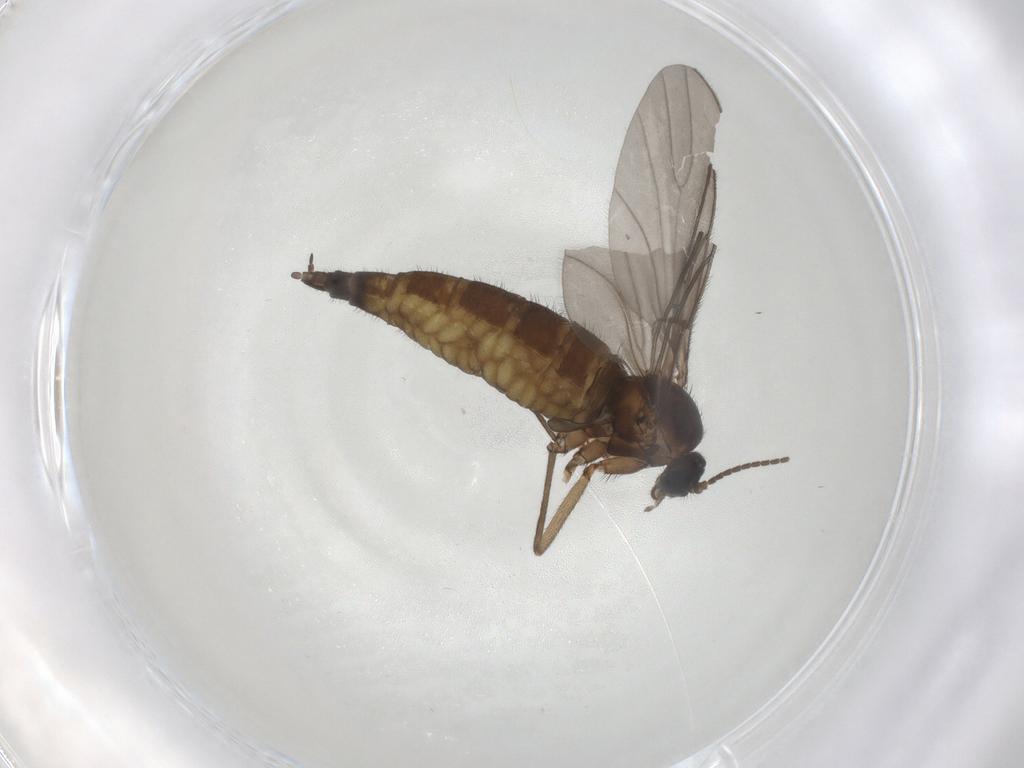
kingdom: Animalia
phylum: Arthropoda
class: Insecta
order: Diptera
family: Sciaridae
